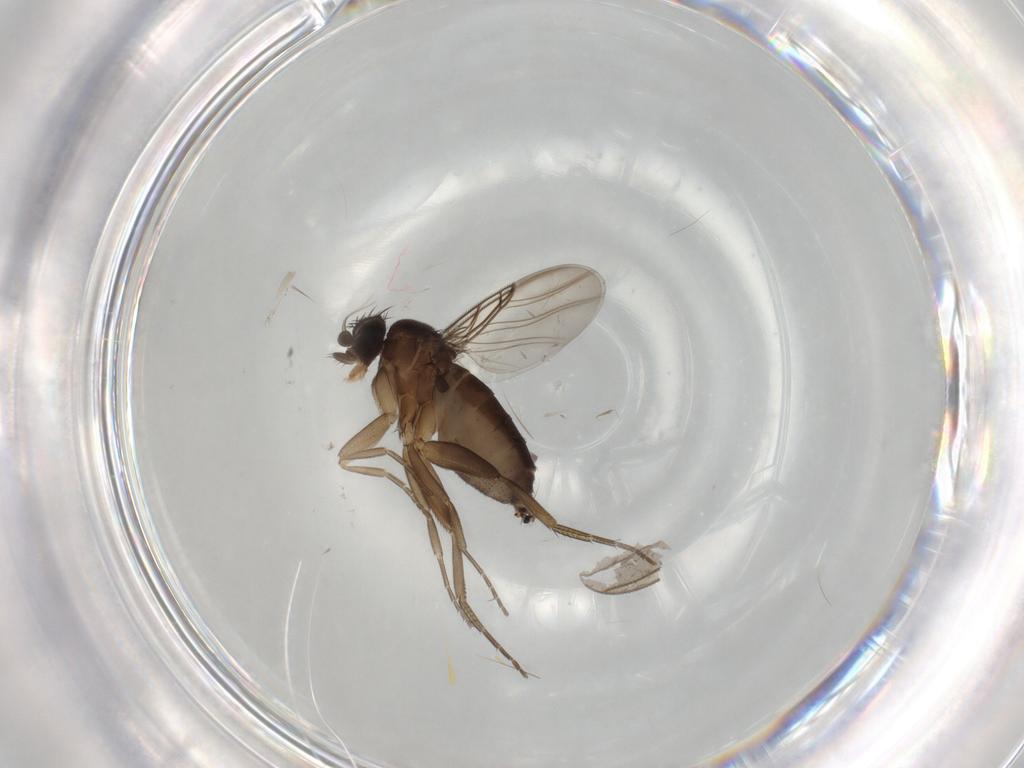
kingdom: Animalia
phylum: Arthropoda
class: Insecta
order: Diptera
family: Phoridae
